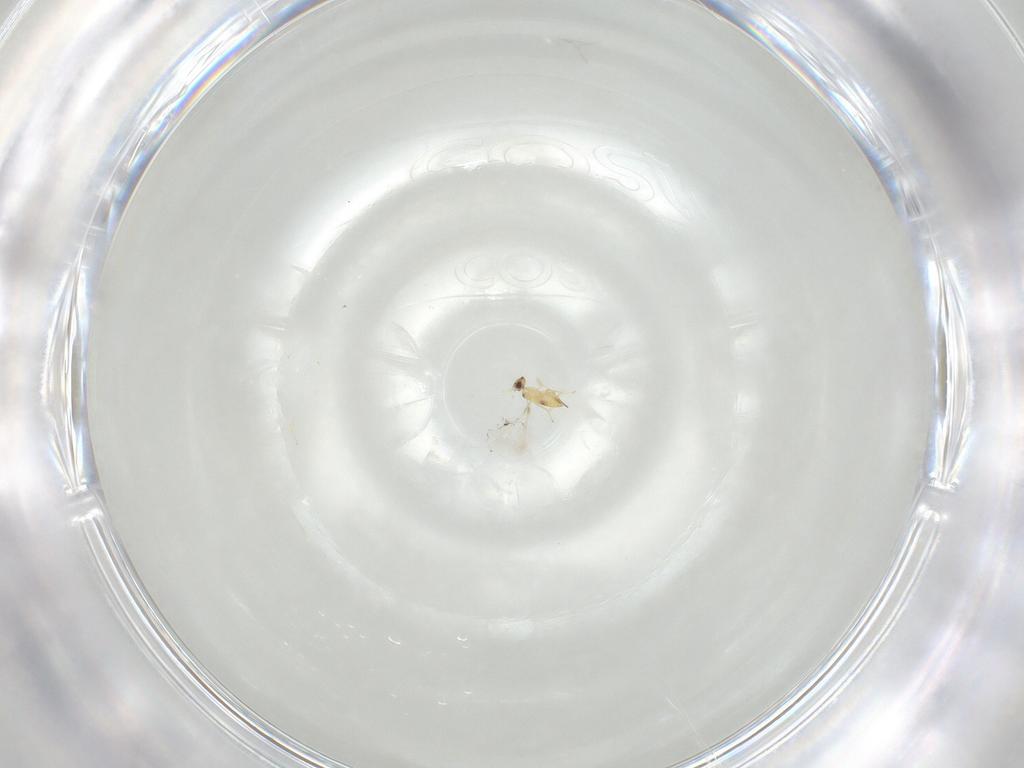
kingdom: Animalia
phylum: Arthropoda
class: Insecta
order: Hymenoptera
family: Mymaridae
